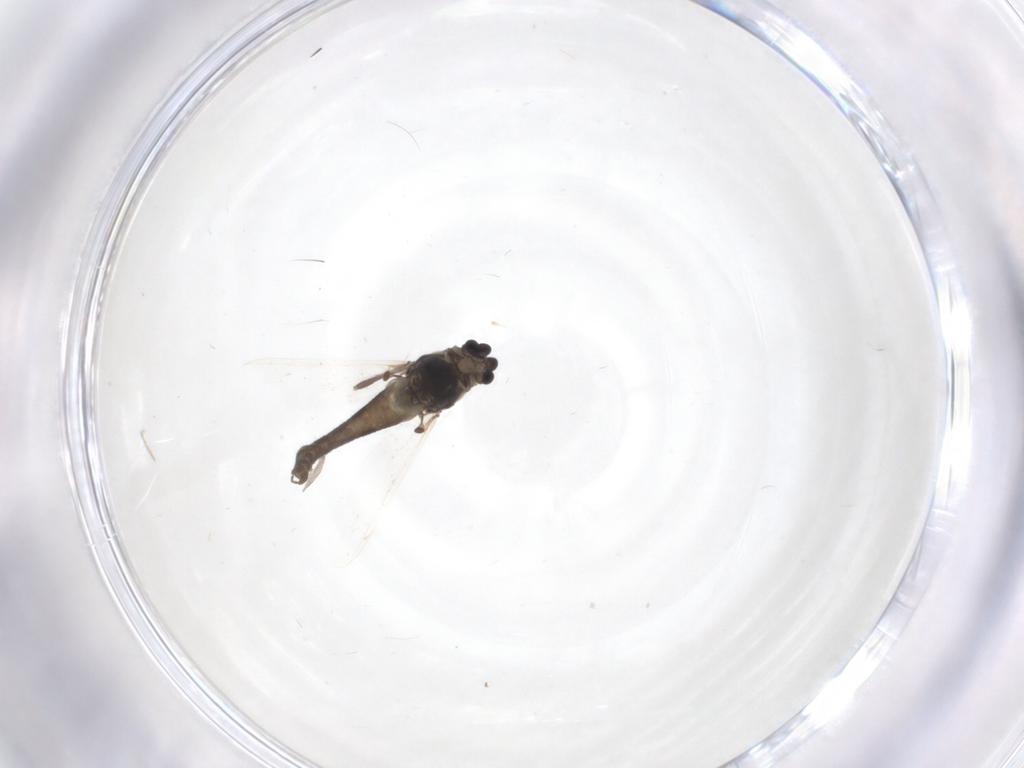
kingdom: Animalia
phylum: Arthropoda
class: Insecta
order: Diptera
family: Chironomidae
